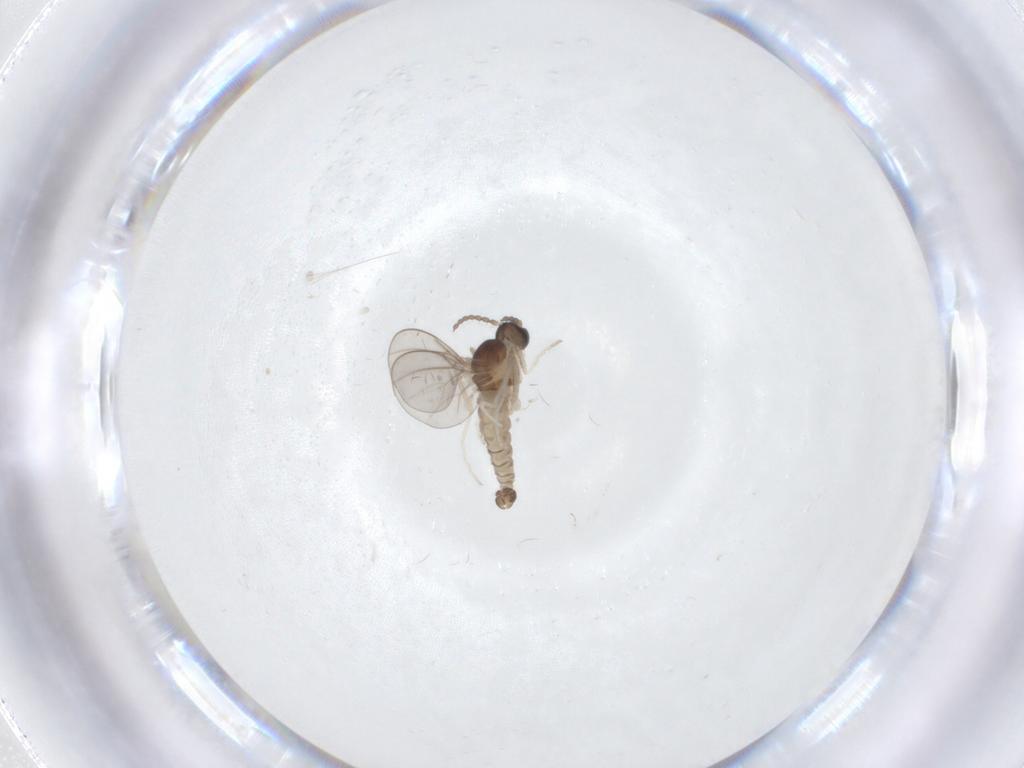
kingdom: Animalia
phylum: Arthropoda
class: Insecta
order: Diptera
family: Cecidomyiidae
